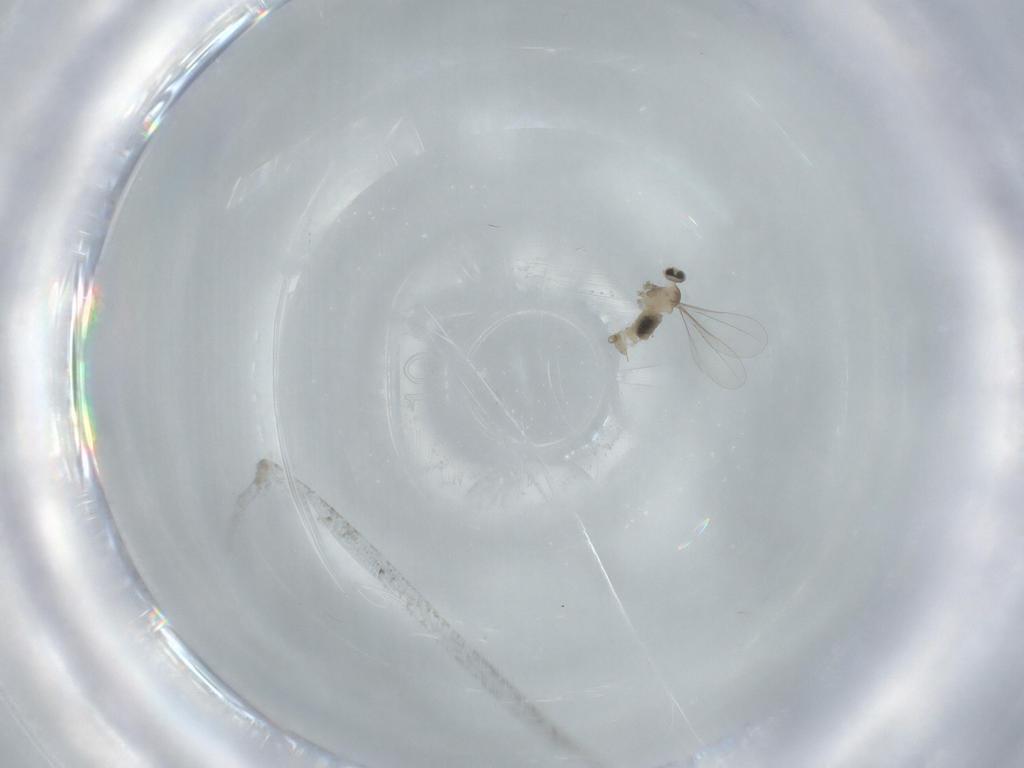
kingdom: Animalia
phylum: Arthropoda
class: Insecta
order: Diptera
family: Cecidomyiidae
